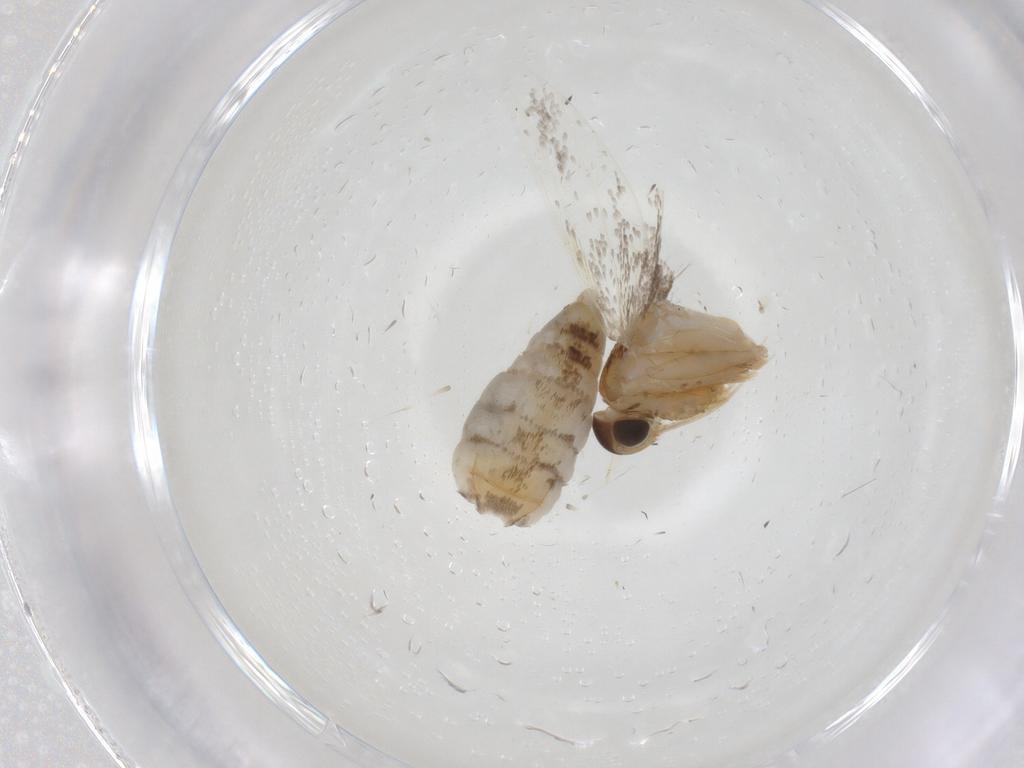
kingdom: Animalia
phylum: Arthropoda
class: Insecta
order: Lepidoptera
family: Oecophoridae
